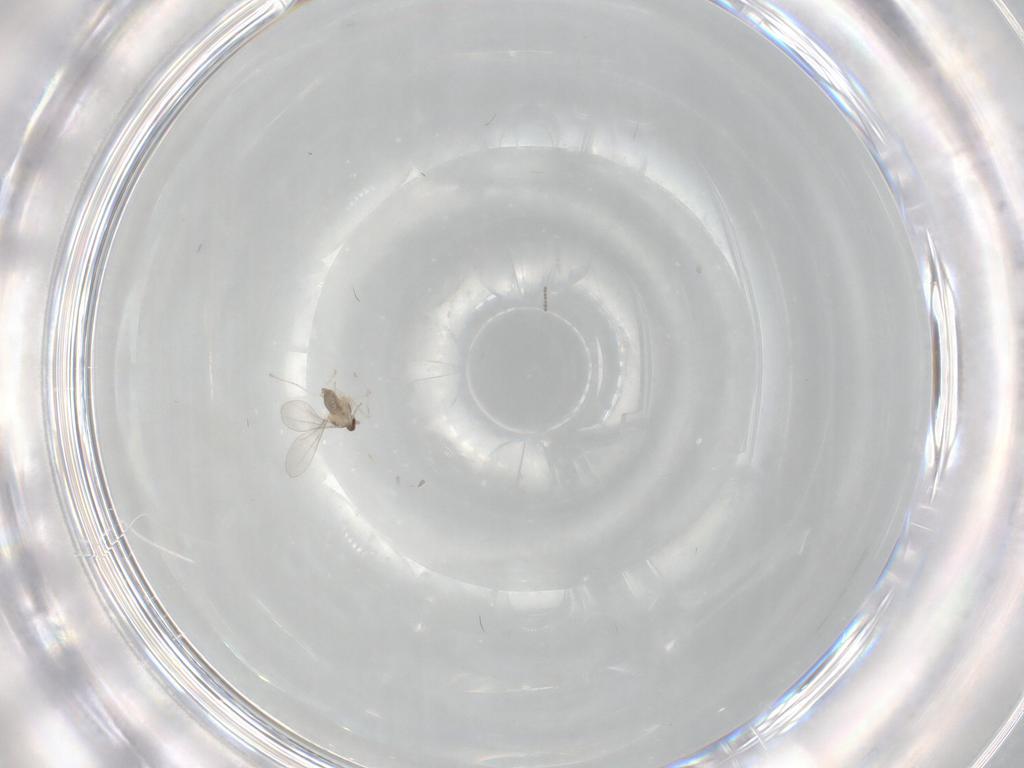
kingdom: Animalia
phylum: Arthropoda
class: Insecta
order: Diptera
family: Cecidomyiidae
